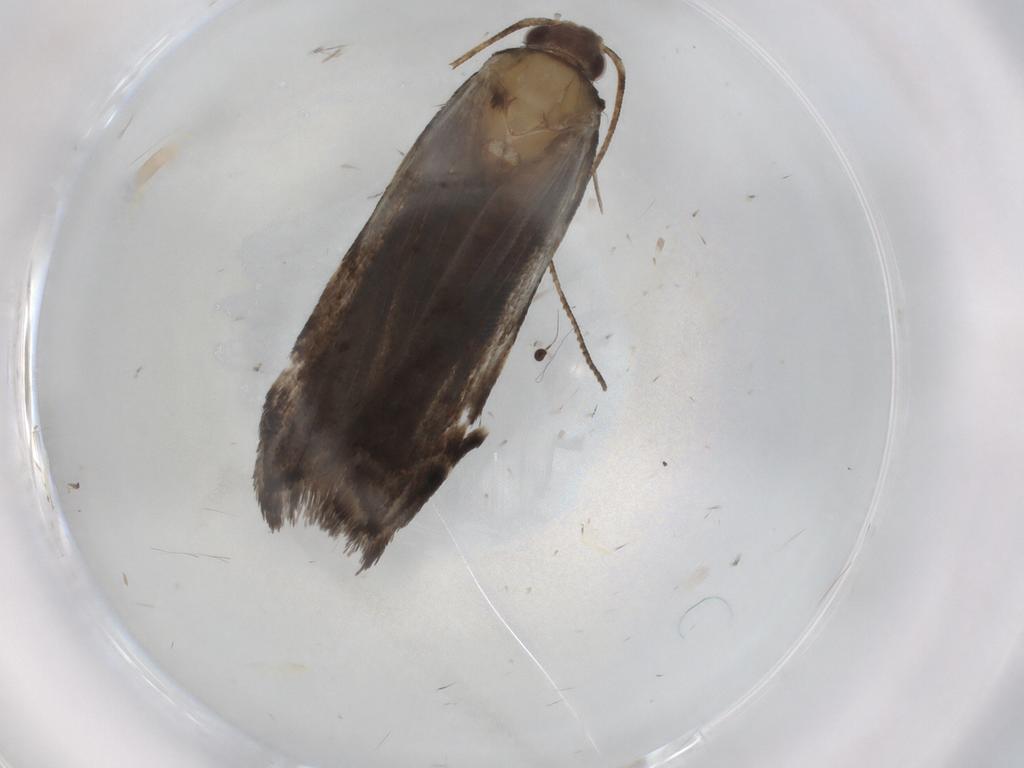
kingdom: Animalia
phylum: Arthropoda
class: Insecta
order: Lepidoptera
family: Gelechiidae
